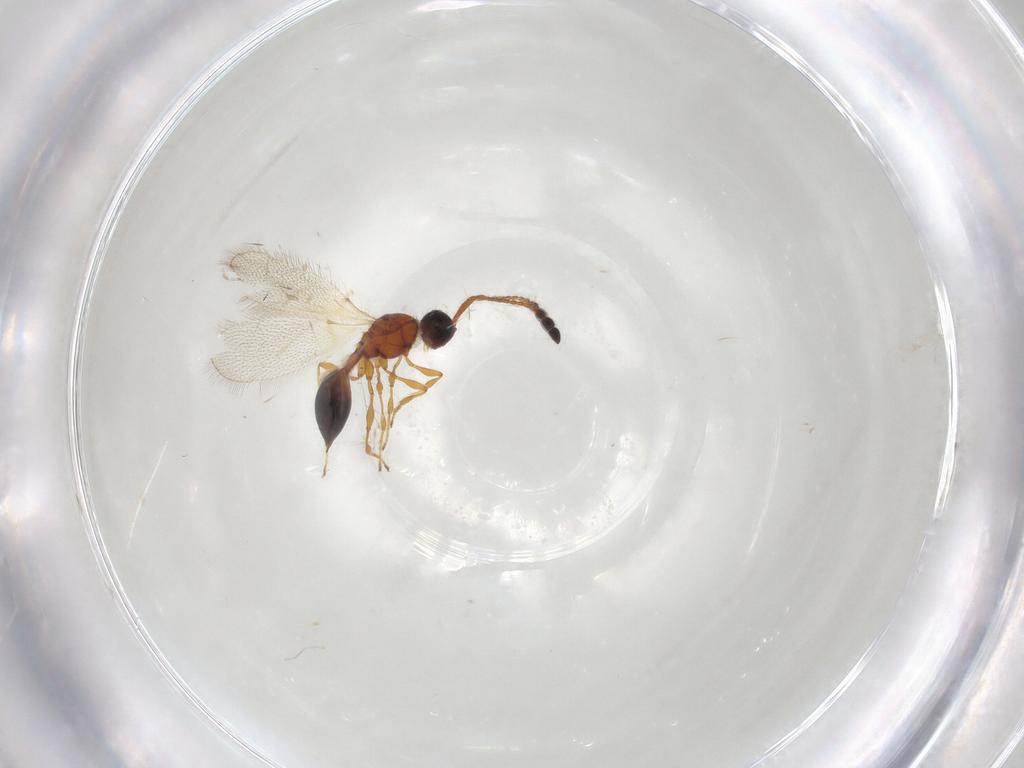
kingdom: Animalia
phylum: Arthropoda
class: Insecta
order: Hymenoptera
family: Diapriidae
